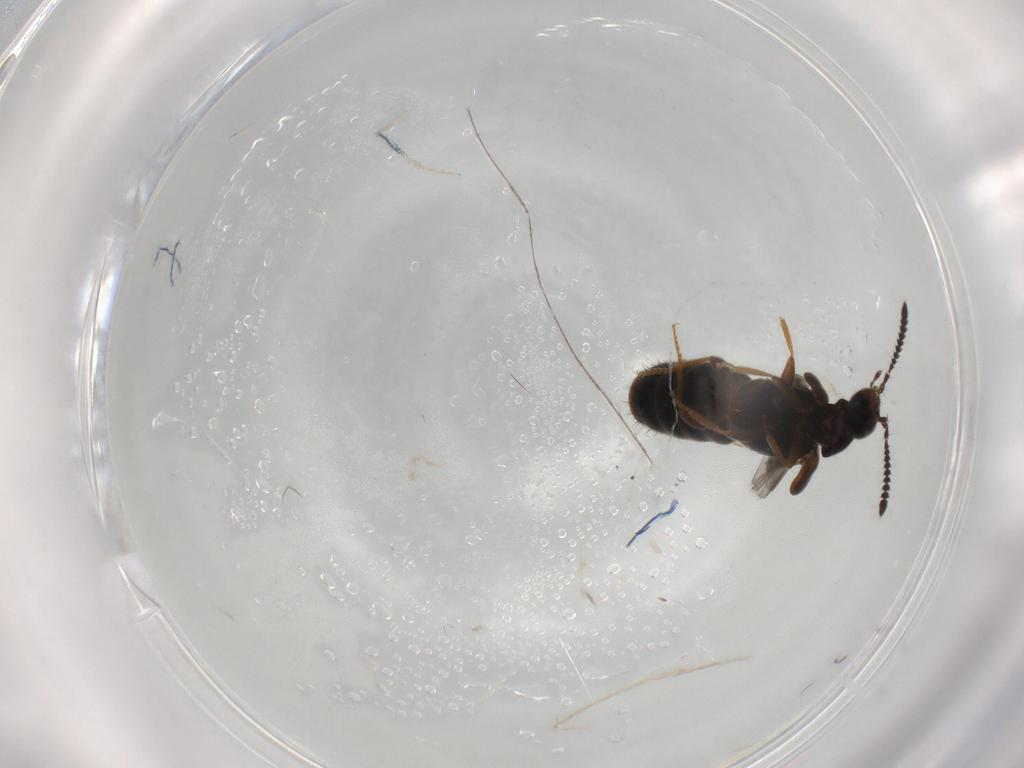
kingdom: Animalia
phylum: Arthropoda
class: Insecta
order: Coleoptera
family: Staphylinidae
